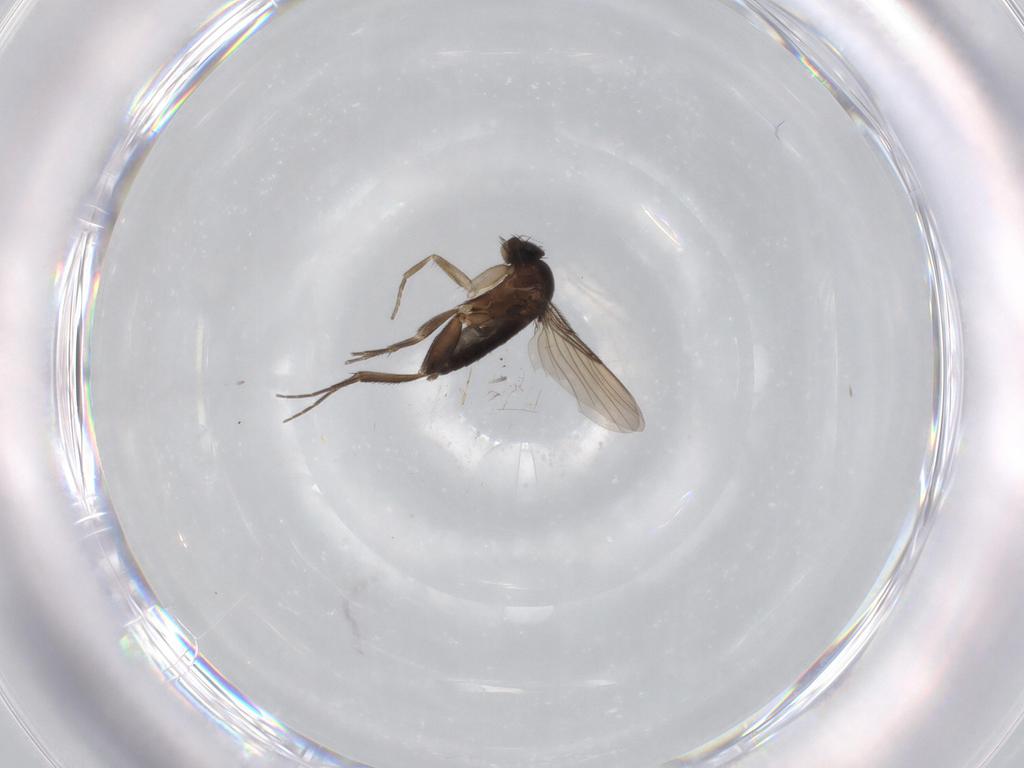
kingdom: Animalia
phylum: Arthropoda
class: Insecta
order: Diptera
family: Phoridae
